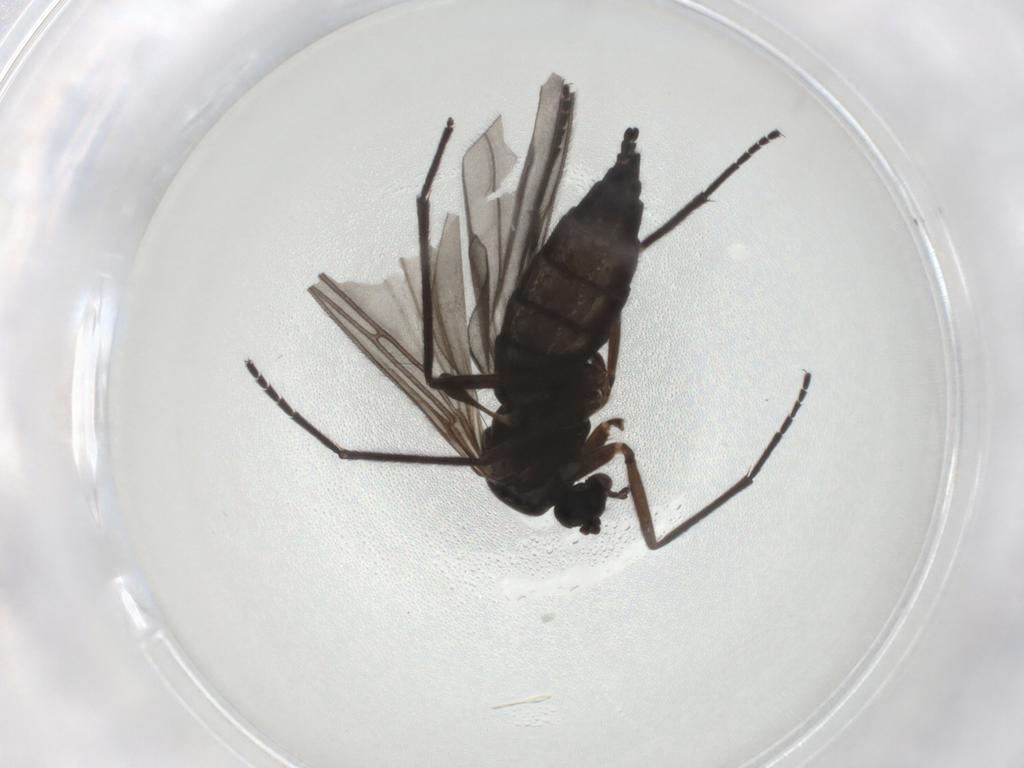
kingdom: Animalia
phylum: Arthropoda
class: Insecta
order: Diptera
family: Sciaridae
